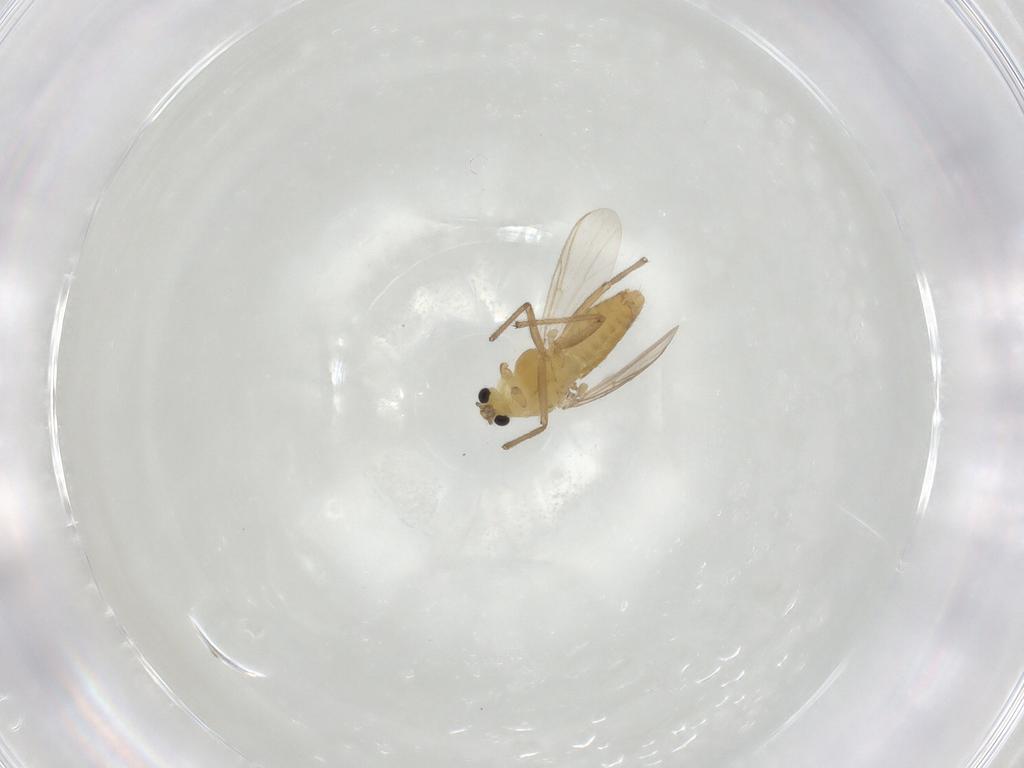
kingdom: Animalia
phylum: Arthropoda
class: Insecta
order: Diptera
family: Chironomidae
